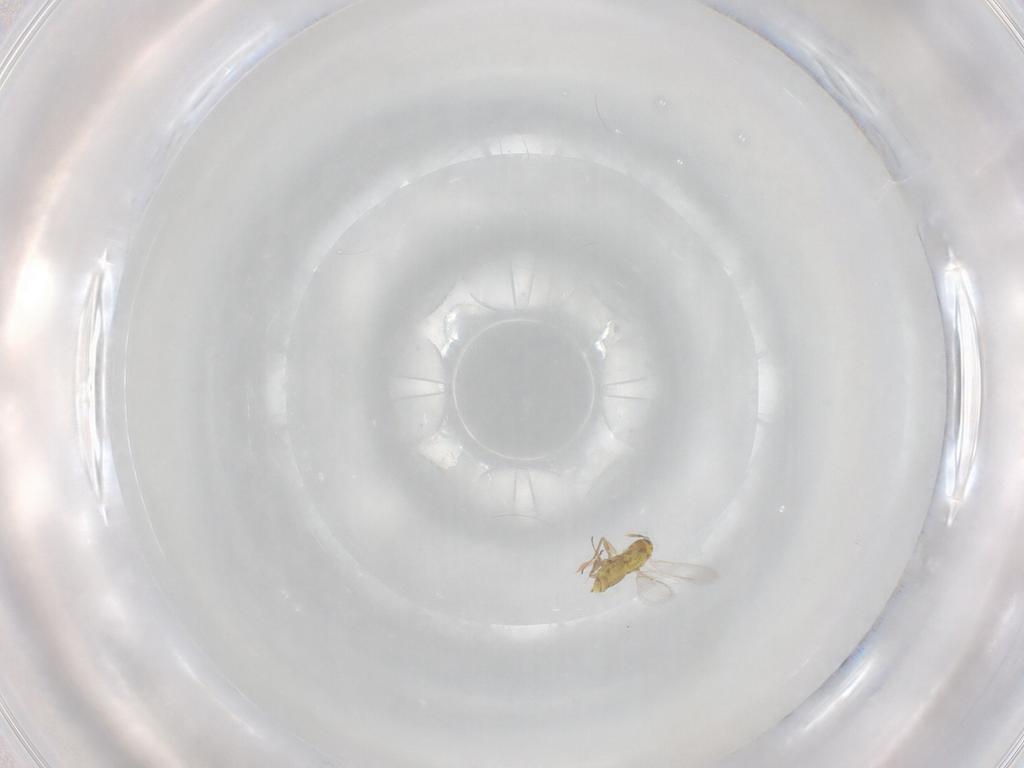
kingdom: Animalia
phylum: Arthropoda
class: Insecta
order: Hymenoptera
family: Aphelinidae
